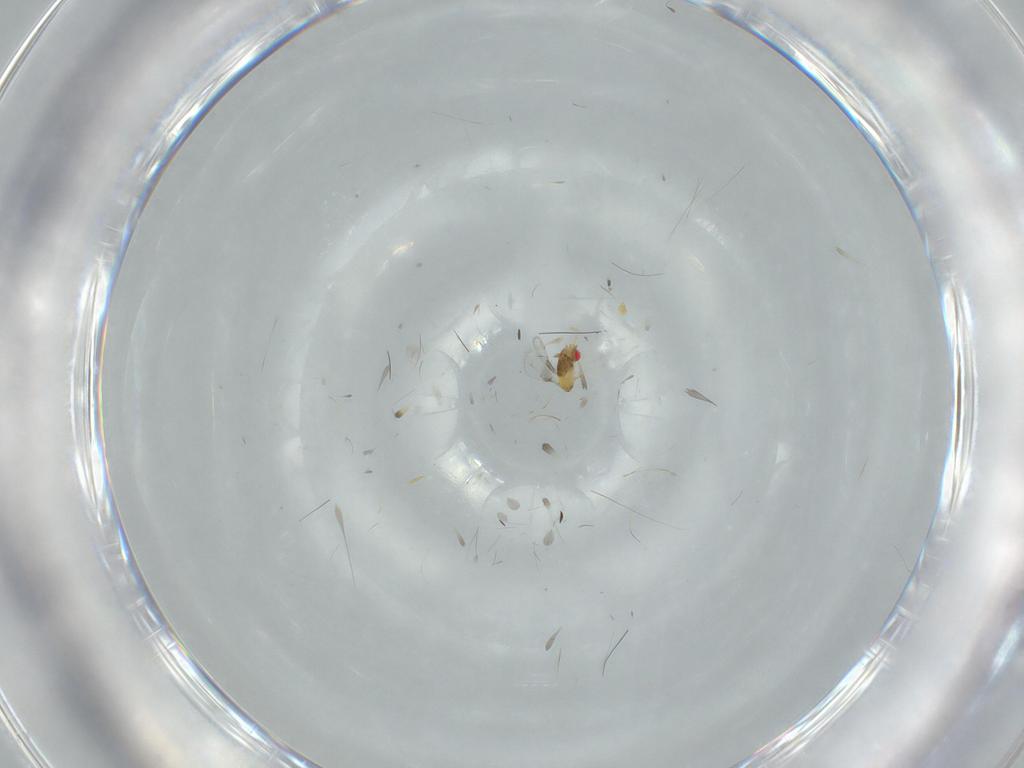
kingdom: Animalia
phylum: Arthropoda
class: Insecta
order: Hymenoptera
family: Trichogrammatidae
